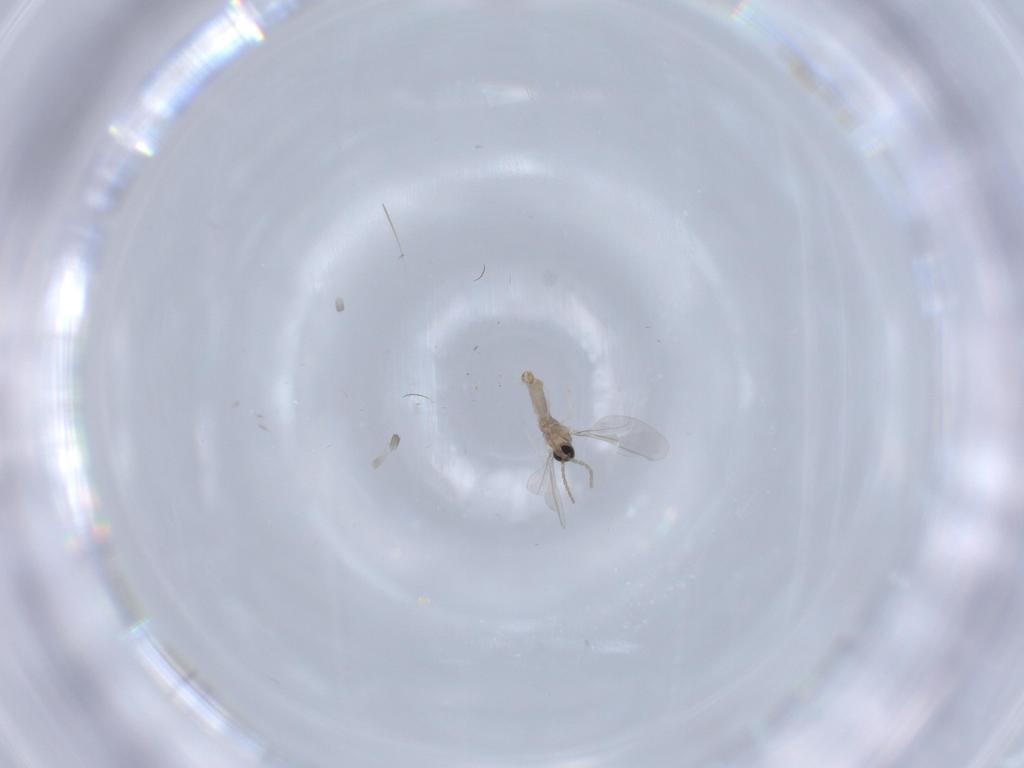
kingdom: Animalia
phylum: Arthropoda
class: Insecta
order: Diptera
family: Cecidomyiidae
